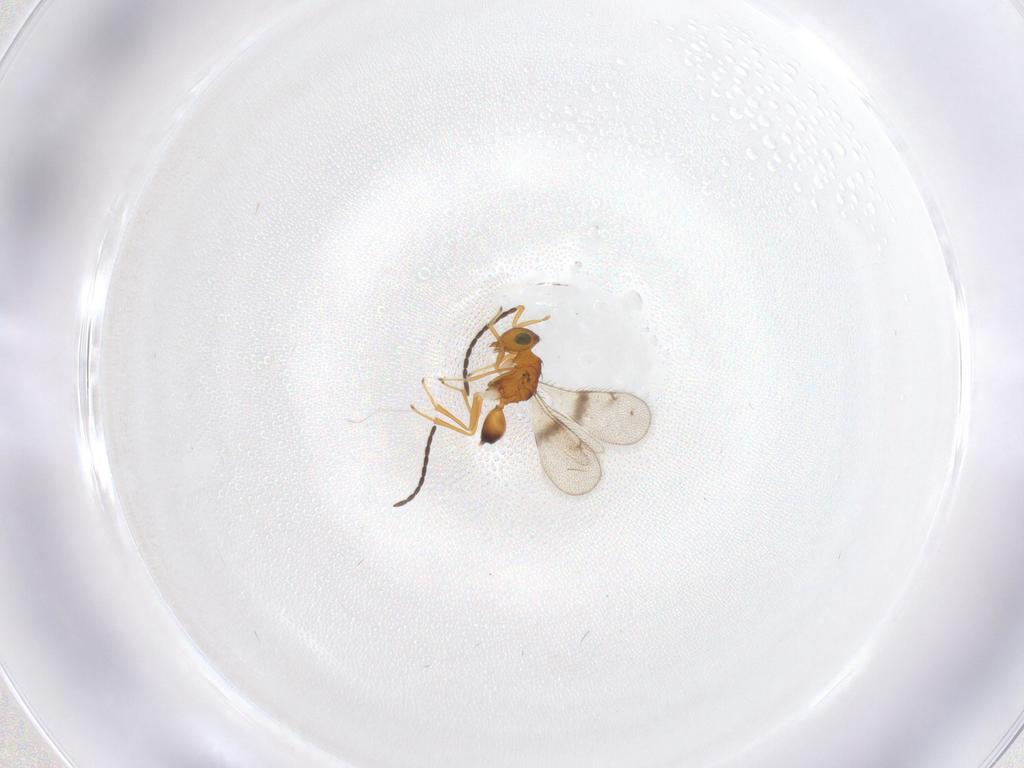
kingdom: Animalia
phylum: Arthropoda
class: Insecta
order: Hymenoptera
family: Diparidae
